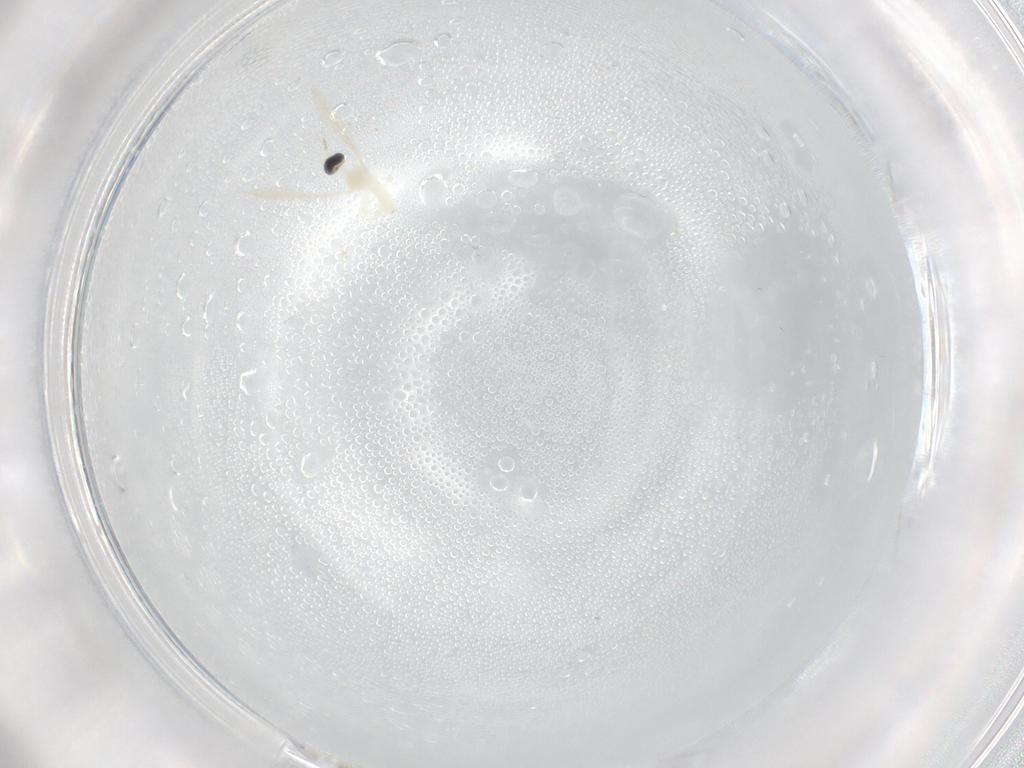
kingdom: Animalia
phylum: Arthropoda
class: Insecta
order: Diptera
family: Cecidomyiidae
